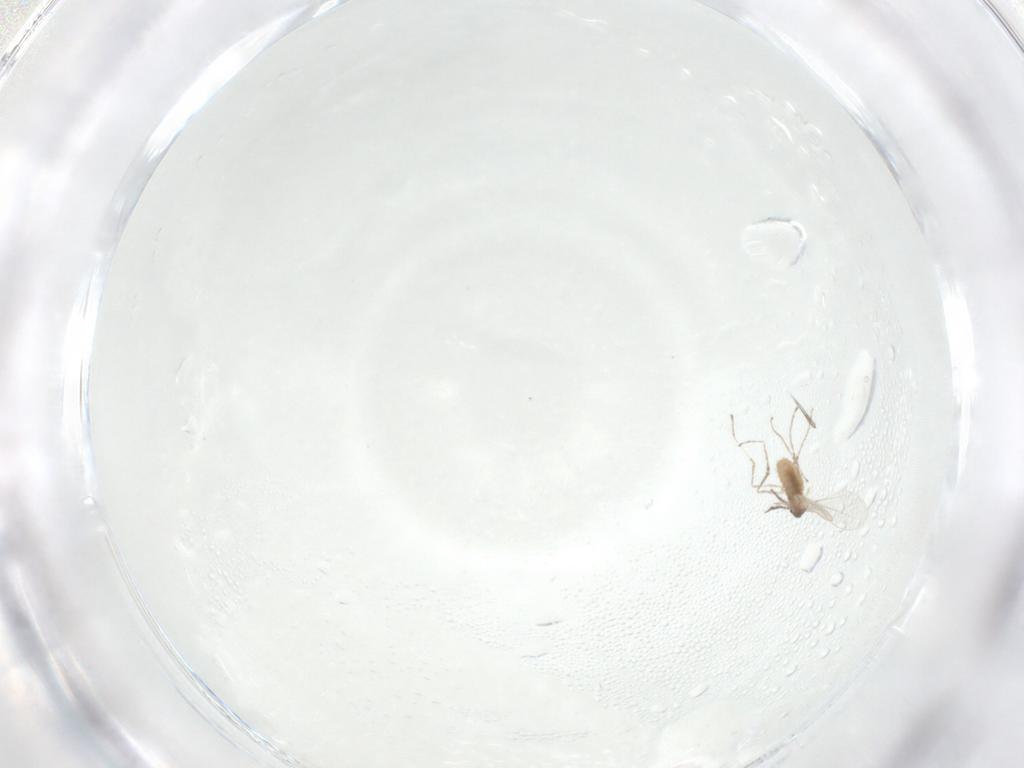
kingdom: Animalia
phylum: Arthropoda
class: Insecta
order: Diptera
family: Cecidomyiidae
